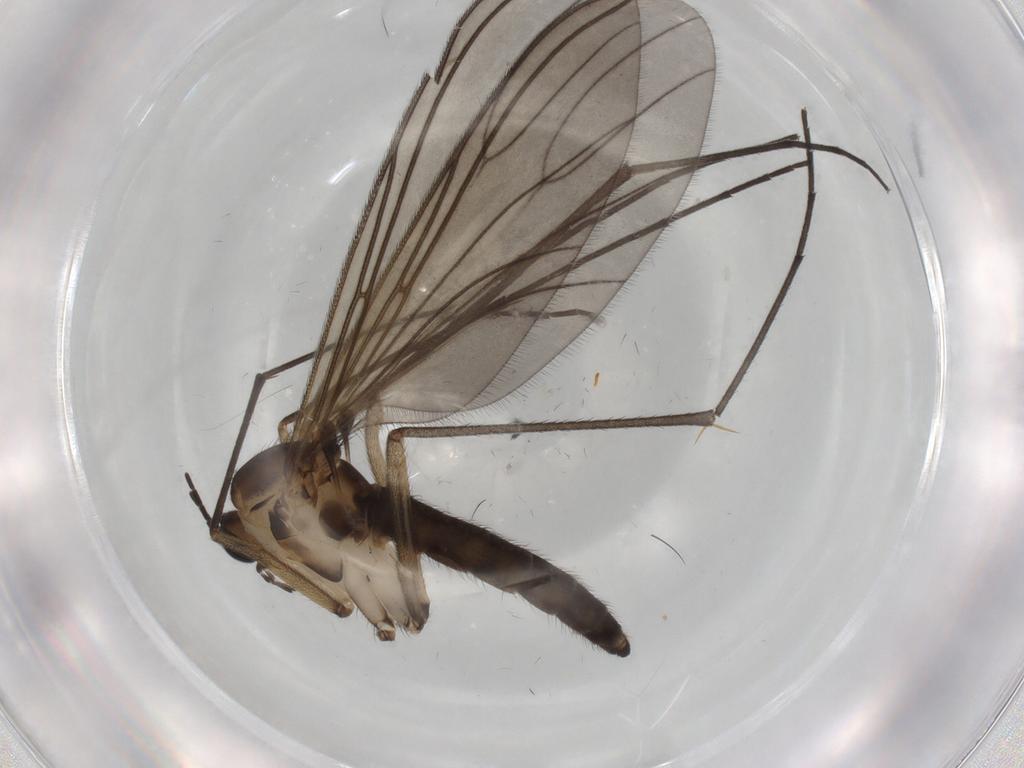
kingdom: Animalia
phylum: Arthropoda
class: Insecta
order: Diptera
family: Sciaridae
